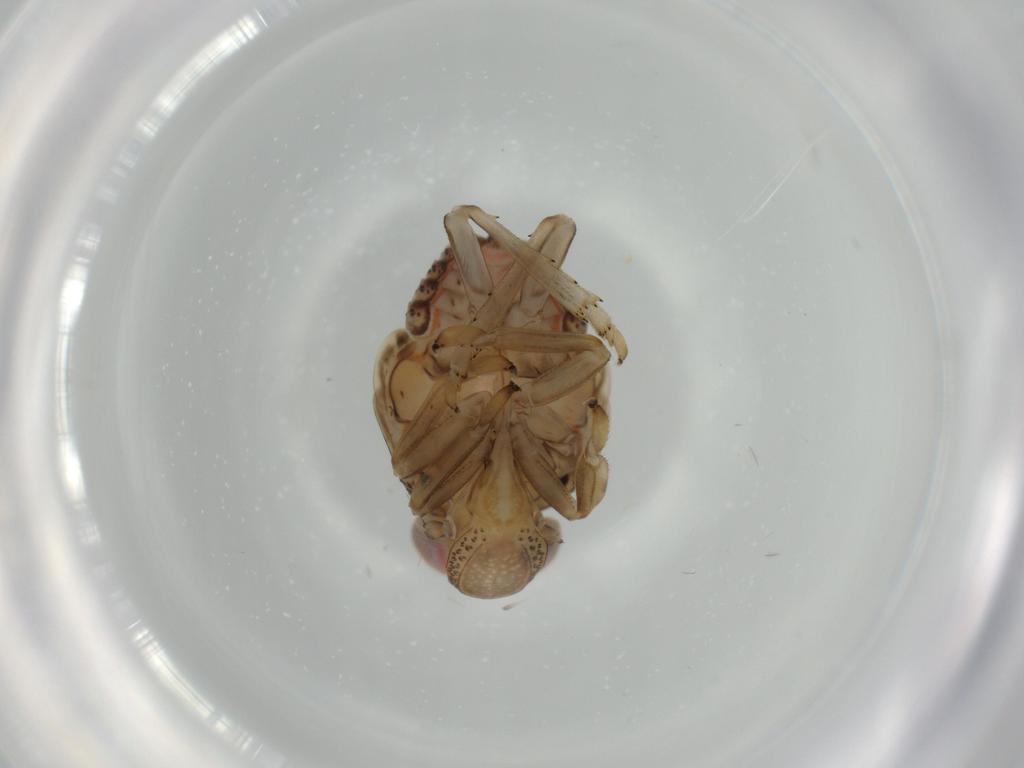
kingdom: Animalia
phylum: Arthropoda
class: Insecta
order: Hemiptera
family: Issidae
